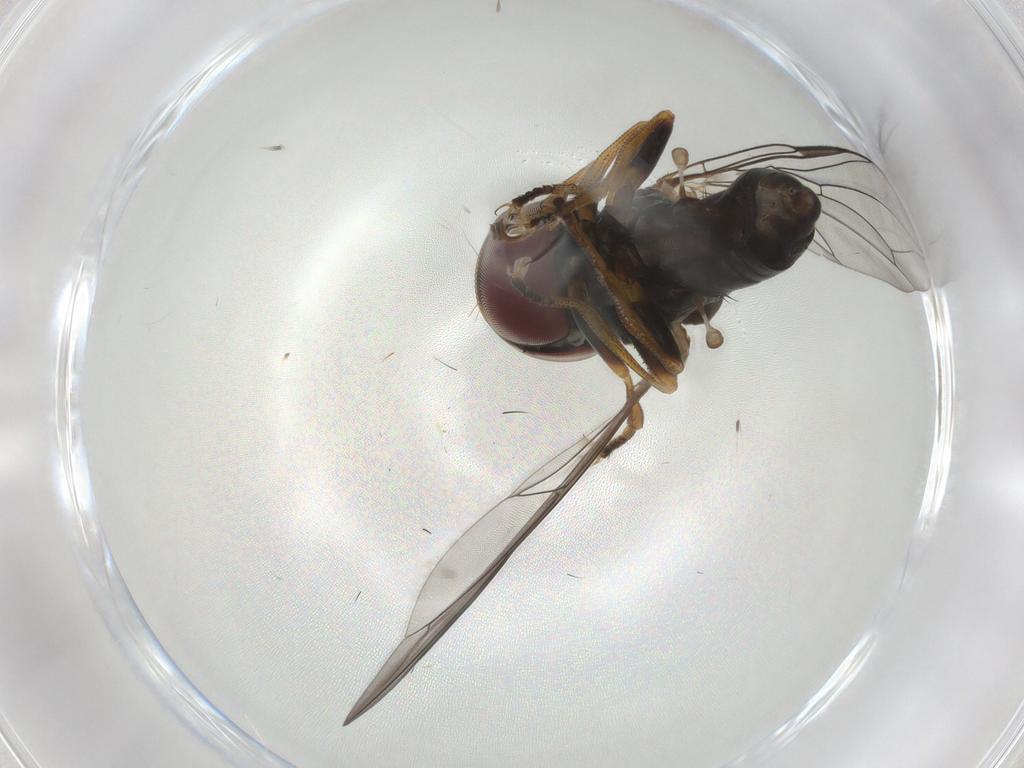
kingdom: Animalia
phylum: Arthropoda
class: Insecta
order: Diptera
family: Pipunculidae
